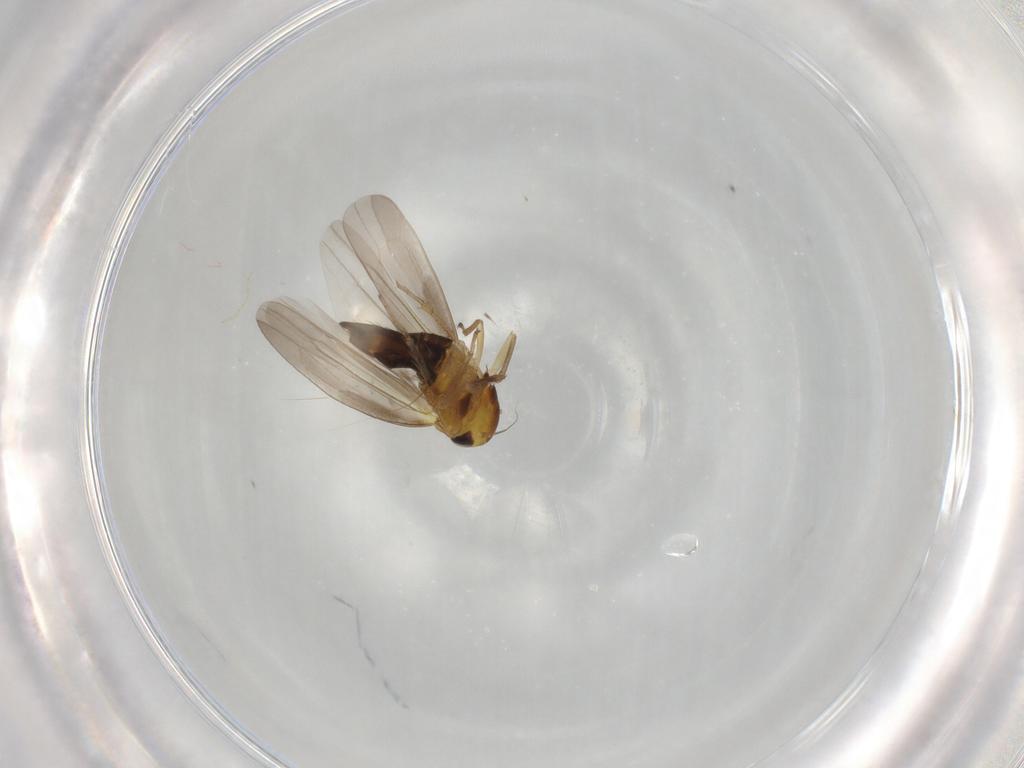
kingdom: Animalia
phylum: Arthropoda
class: Insecta
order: Hemiptera
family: Cicadellidae
